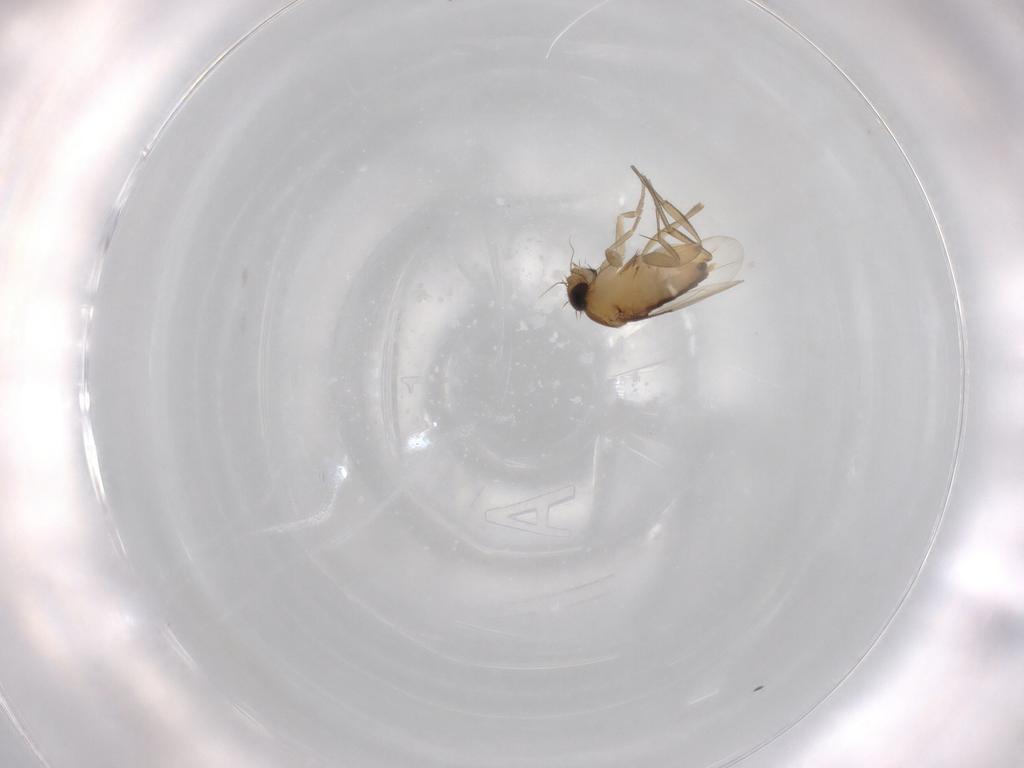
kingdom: Animalia
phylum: Arthropoda
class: Insecta
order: Diptera
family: Phoridae
